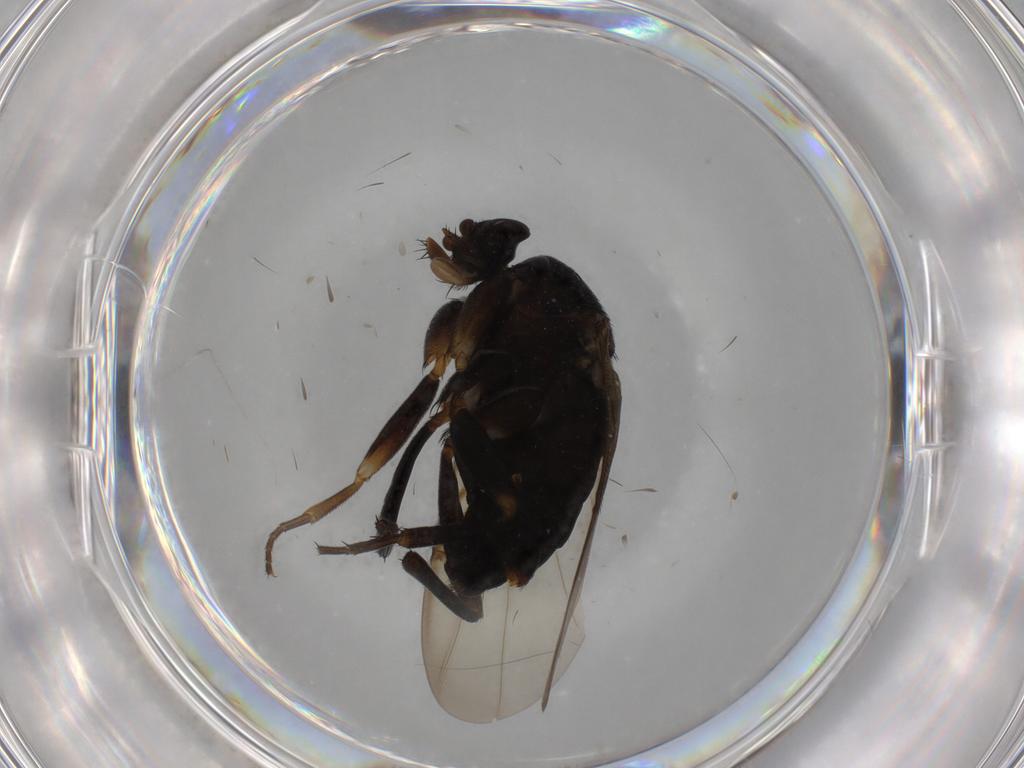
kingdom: Animalia
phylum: Arthropoda
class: Insecta
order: Diptera
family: Phoridae
